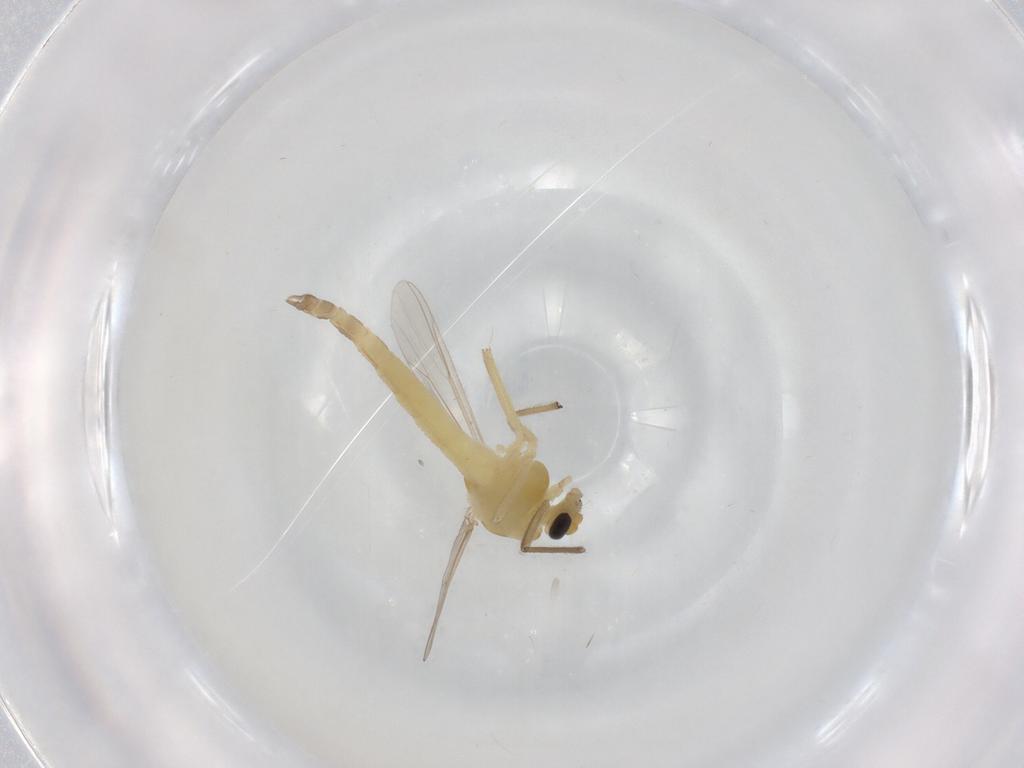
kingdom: Animalia
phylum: Arthropoda
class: Insecta
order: Diptera
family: Chironomidae
